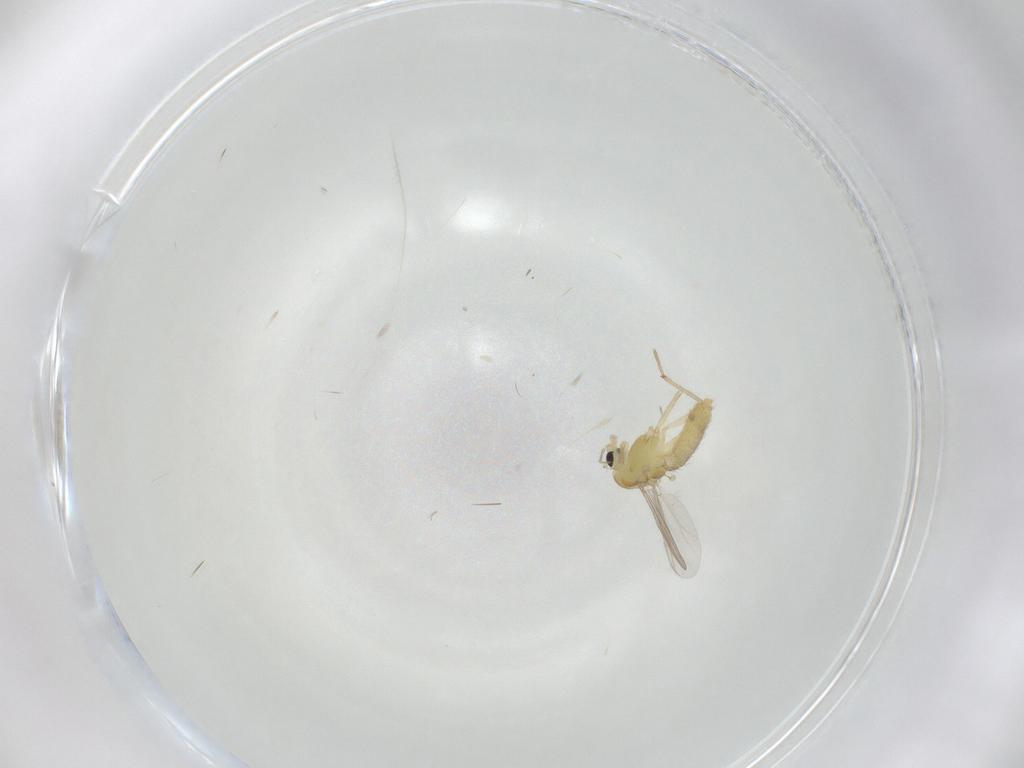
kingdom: Animalia
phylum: Arthropoda
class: Insecta
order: Diptera
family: Chironomidae
